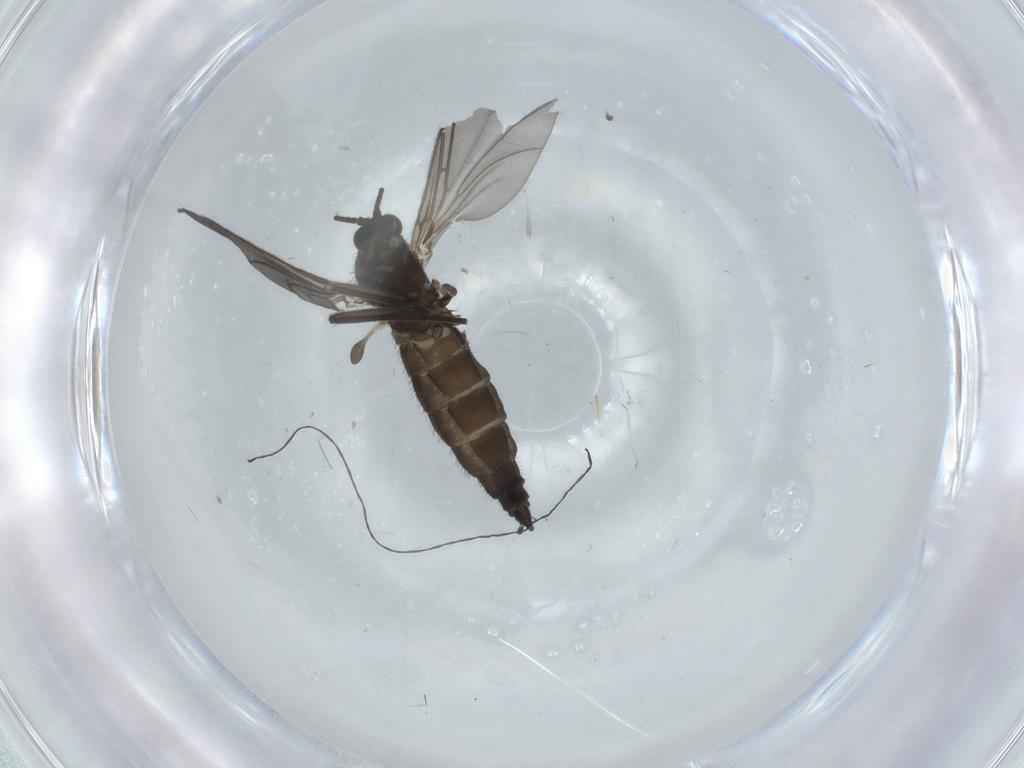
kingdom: Animalia
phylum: Arthropoda
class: Insecta
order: Diptera
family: Sciaridae
